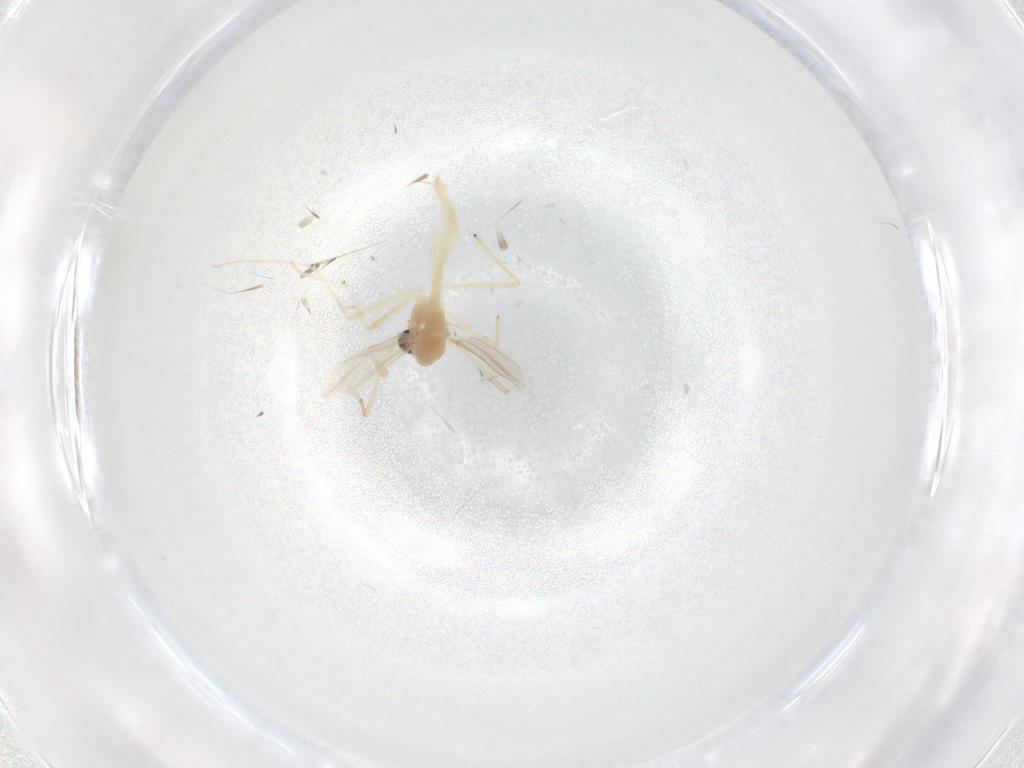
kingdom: Animalia
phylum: Arthropoda
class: Insecta
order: Diptera
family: Chironomidae
